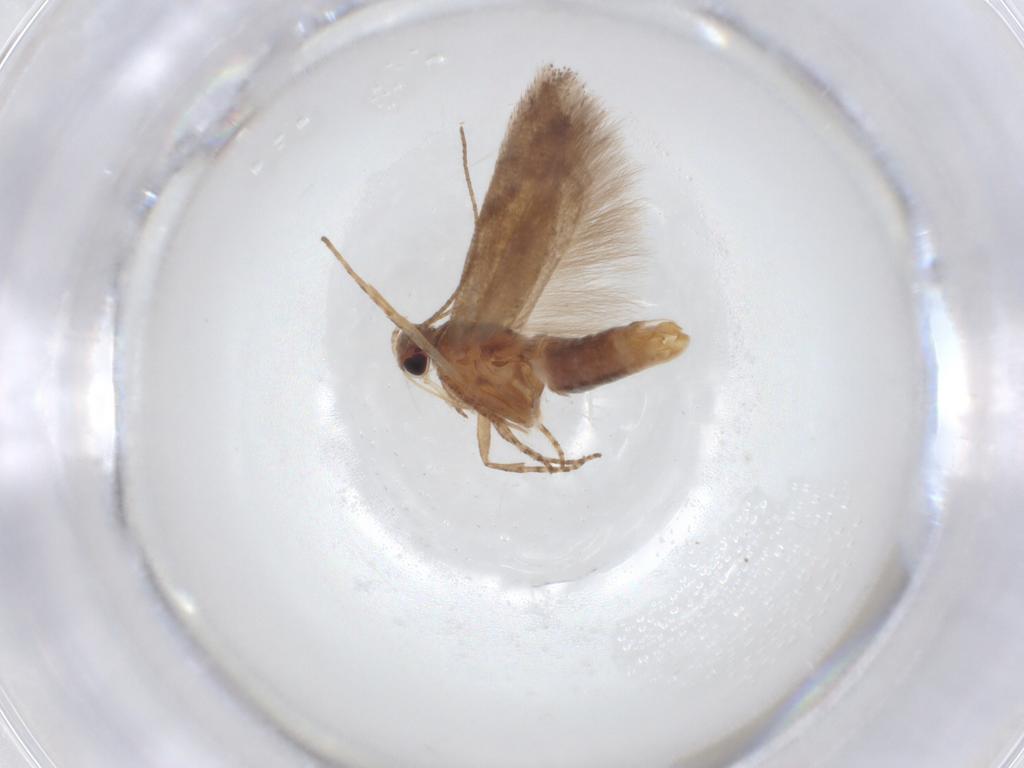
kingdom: Animalia
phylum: Arthropoda
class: Insecta
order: Lepidoptera
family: Gelechiidae
